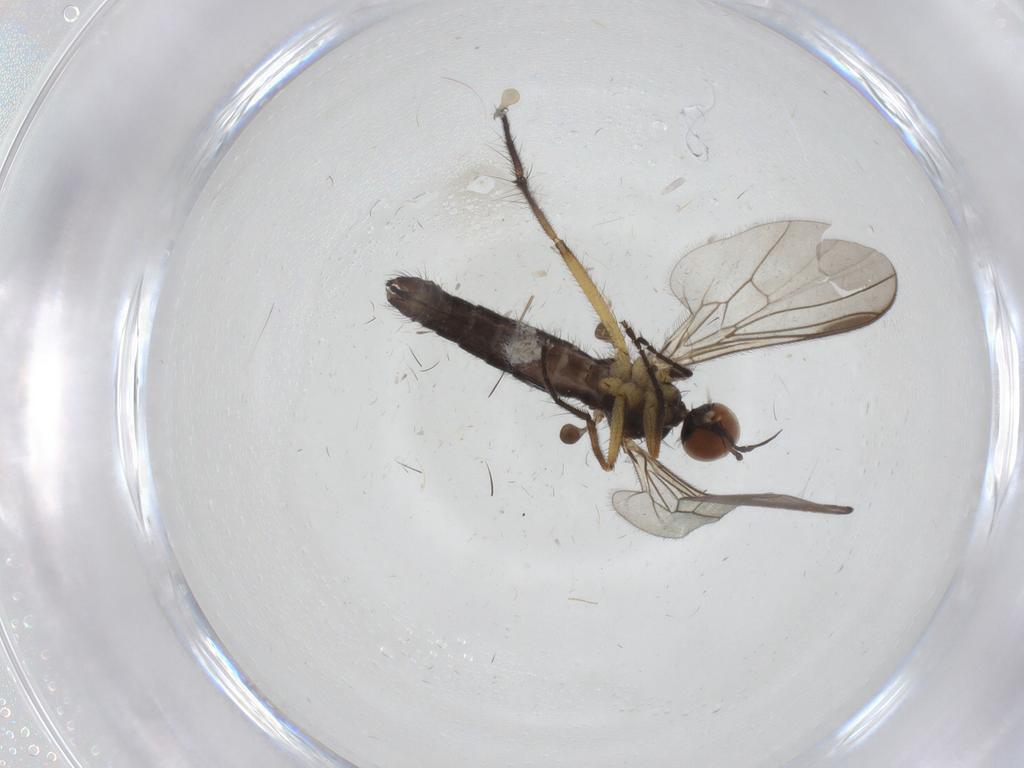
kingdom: Animalia
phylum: Arthropoda
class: Insecta
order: Diptera
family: Empididae
